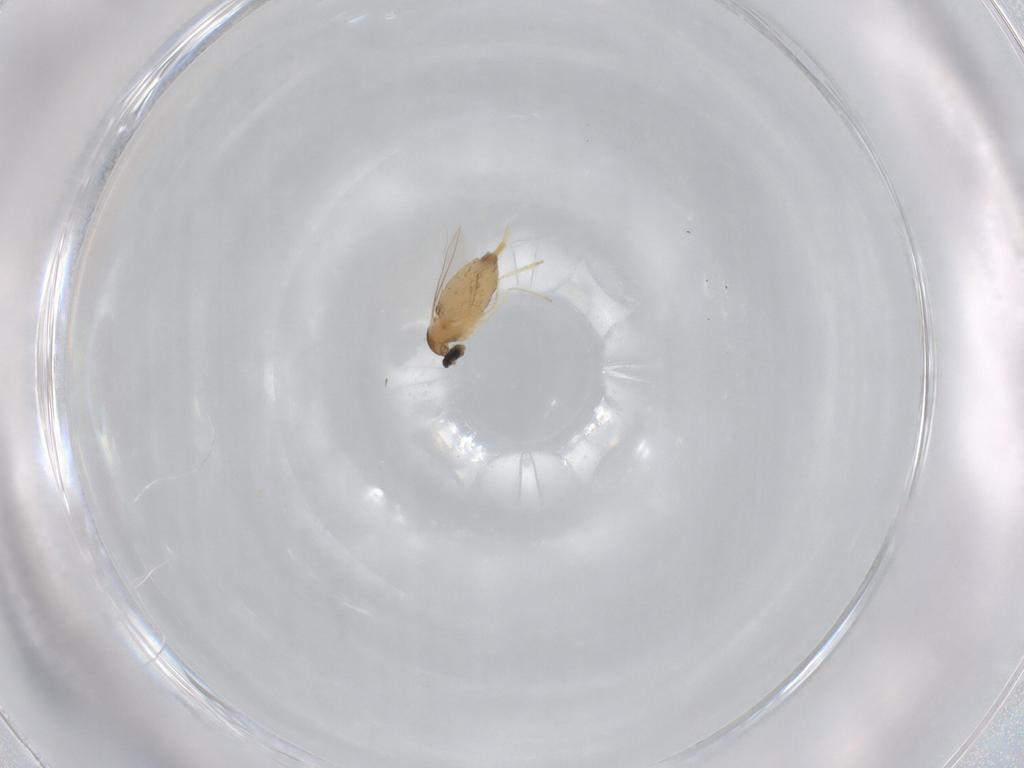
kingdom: Animalia
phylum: Arthropoda
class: Insecta
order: Diptera
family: Cecidomyiidae
